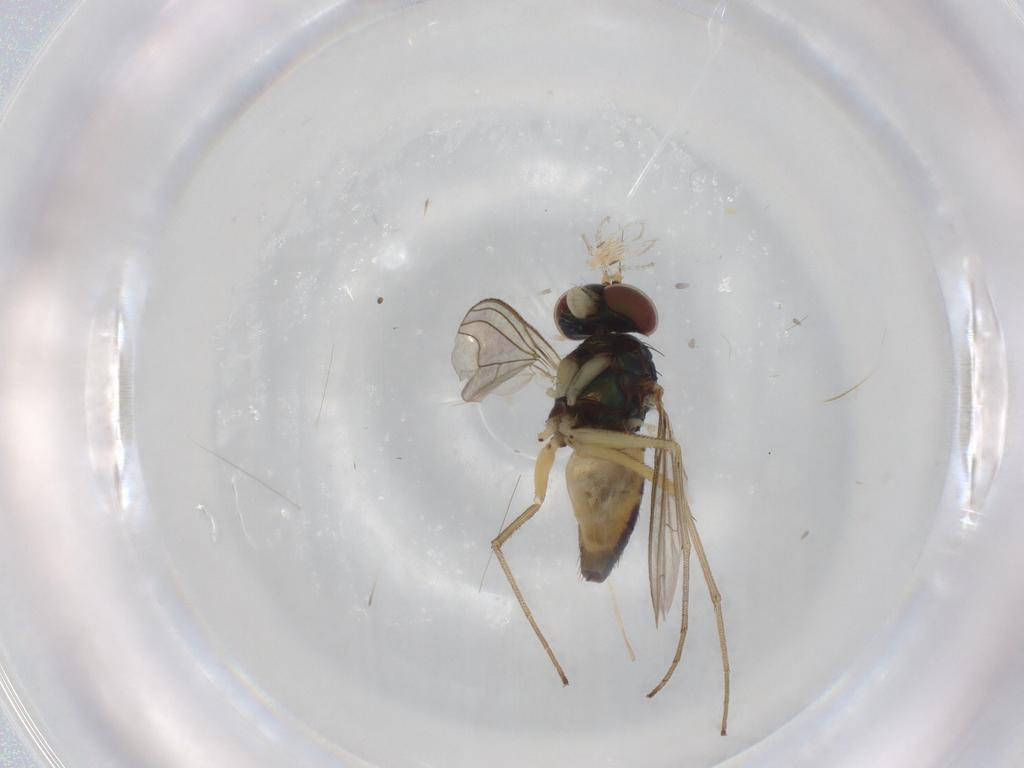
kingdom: Animalia
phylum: Arthropoda
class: Insecta
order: Diptera
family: Dolichopodidae
